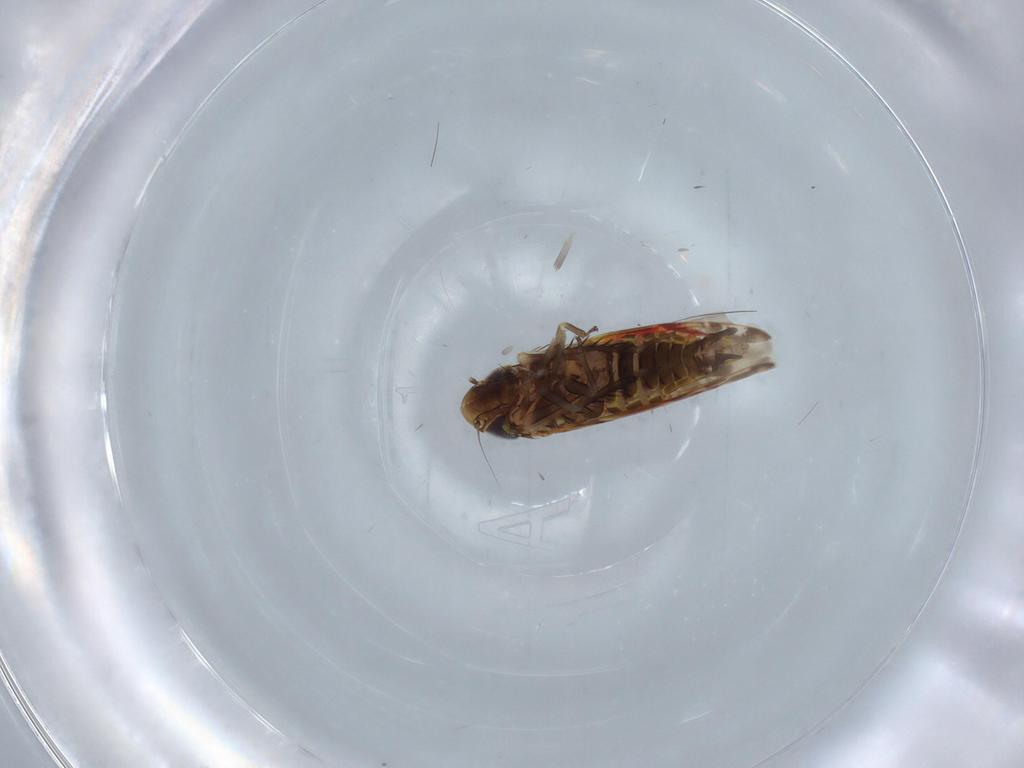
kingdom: Animalia
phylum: Arthropoda
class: Insecta
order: Hemiptera
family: Cicadellidae
